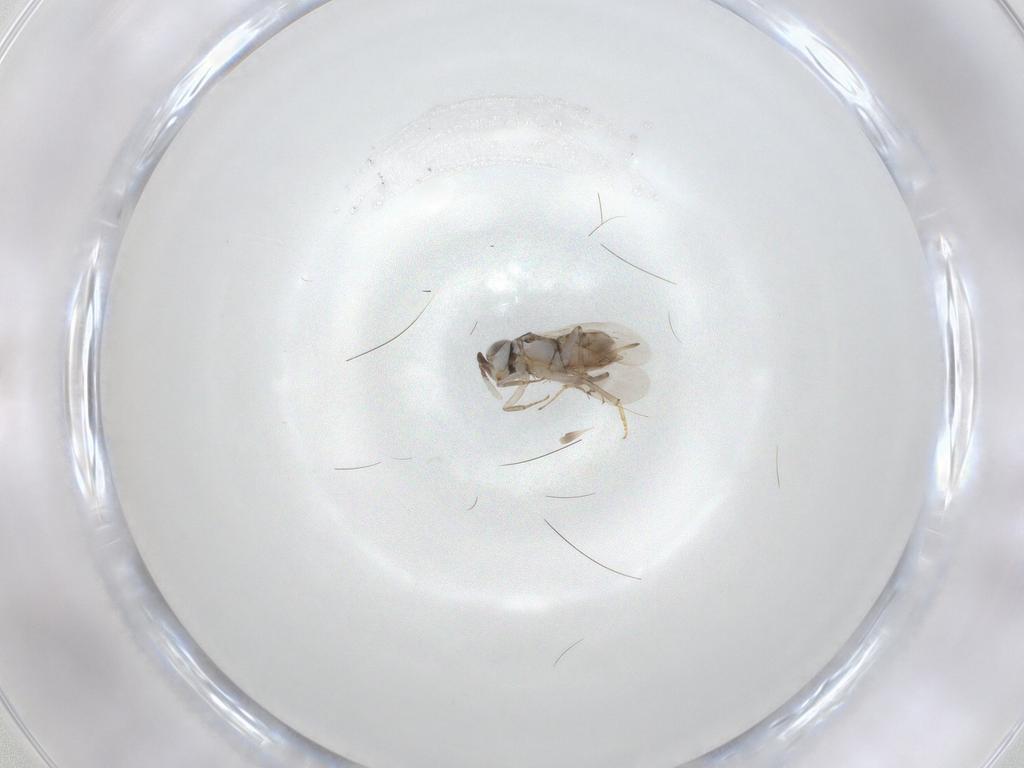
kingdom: Animalia
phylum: Arthropoda
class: Insecta
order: Hymenoptera
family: Encyrtidae
